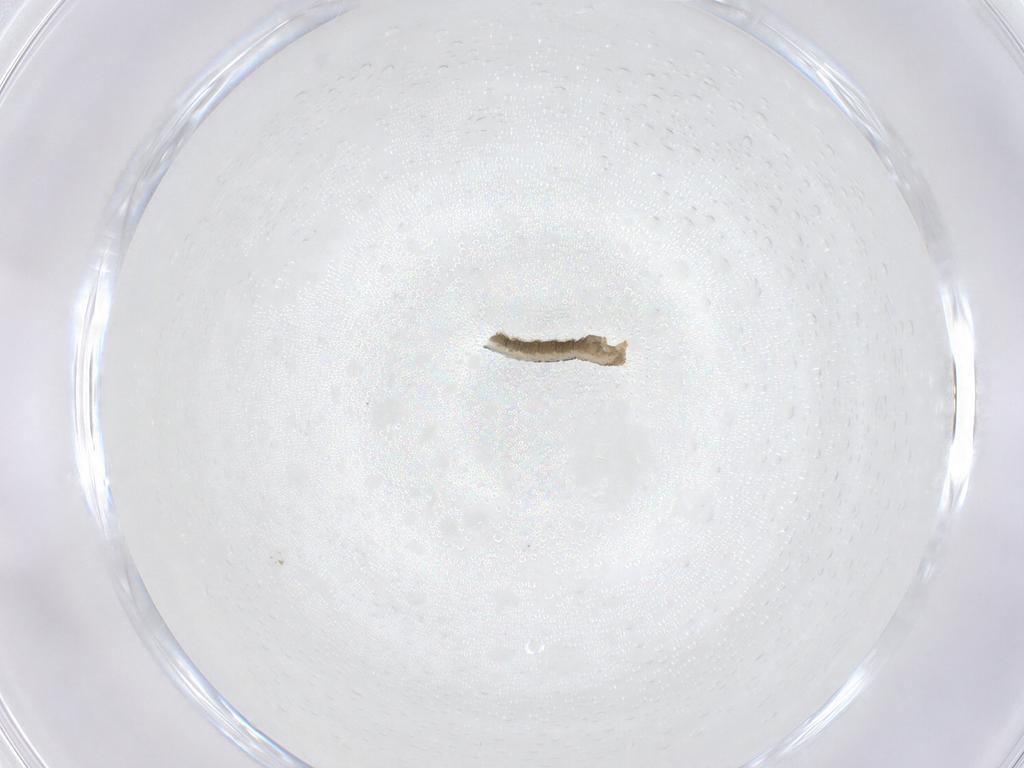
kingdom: Animalia
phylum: Arthropoda
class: Insecta
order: Lepidoptera
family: Geometridae
